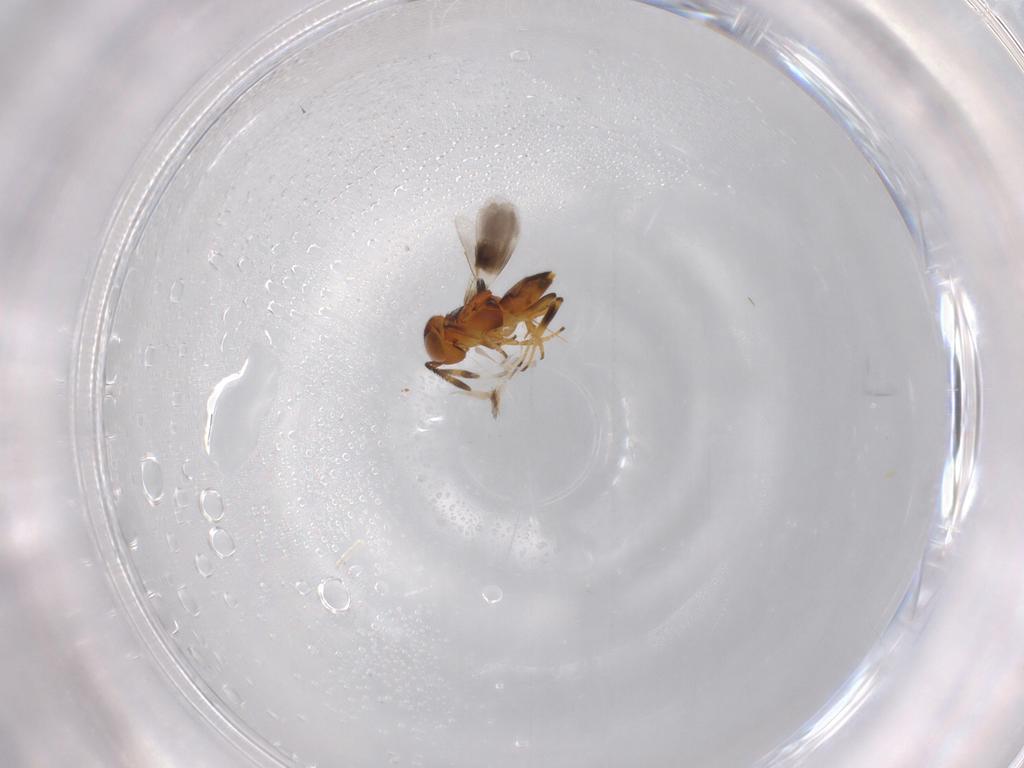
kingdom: Animalia
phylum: Arthropoda
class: Insecta
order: Hymenoptera
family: Encyrtidae
